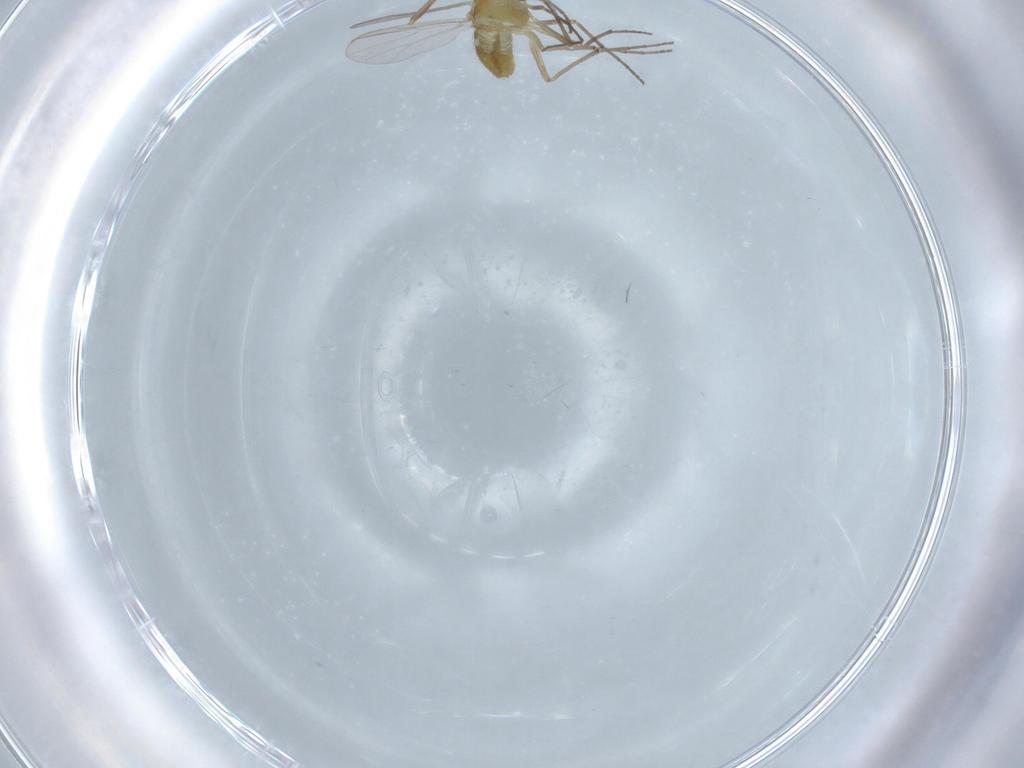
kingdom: Animalia
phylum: Arthropoda
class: Insecta
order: Diptera
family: Chironomidae
